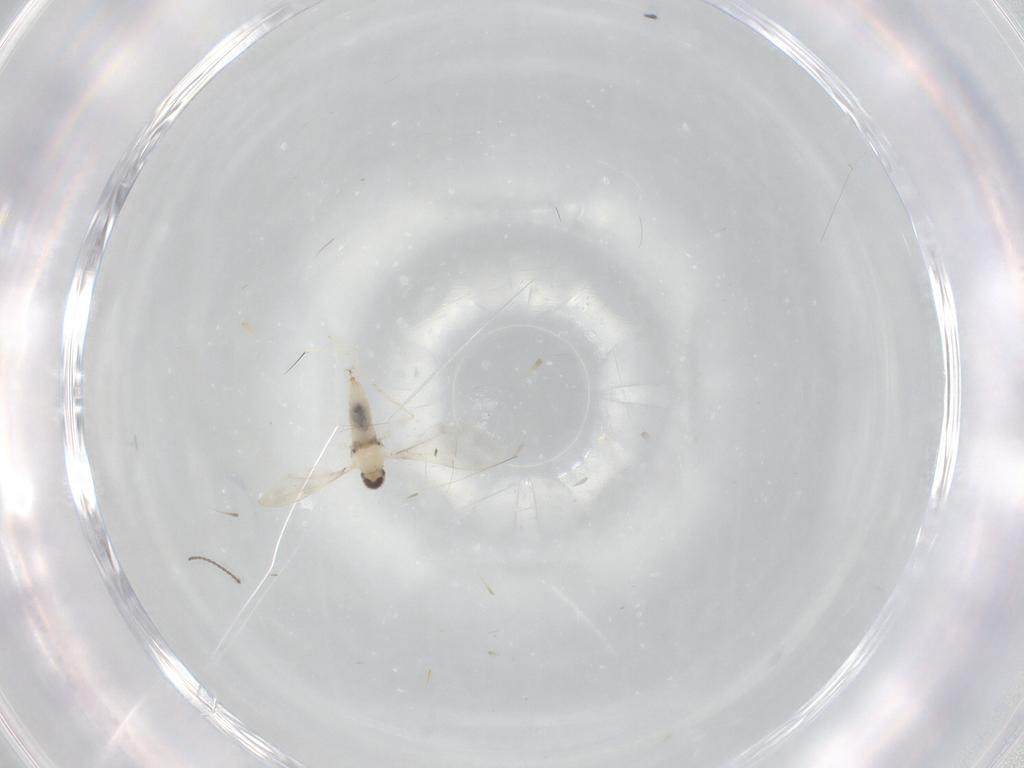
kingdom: Animalia
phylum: Arthropoda
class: Insecta
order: Diptera
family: Cecidomyiidae
